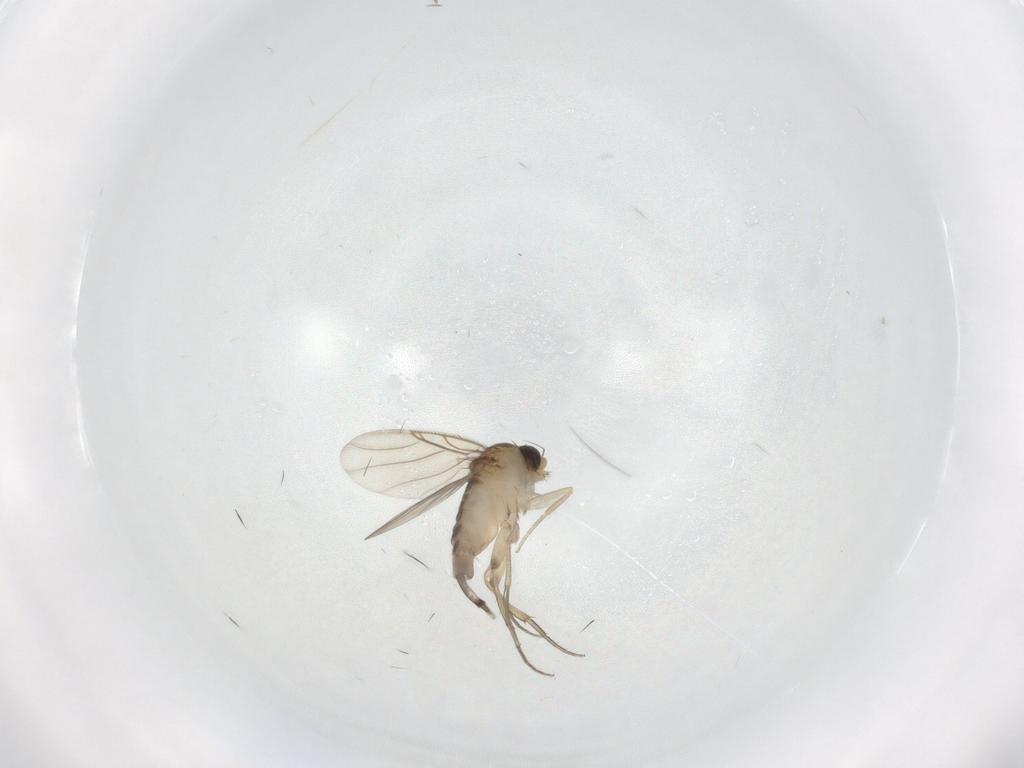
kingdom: Animalia
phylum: Arthropoda
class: Insecta
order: Diptera
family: Phoridae
